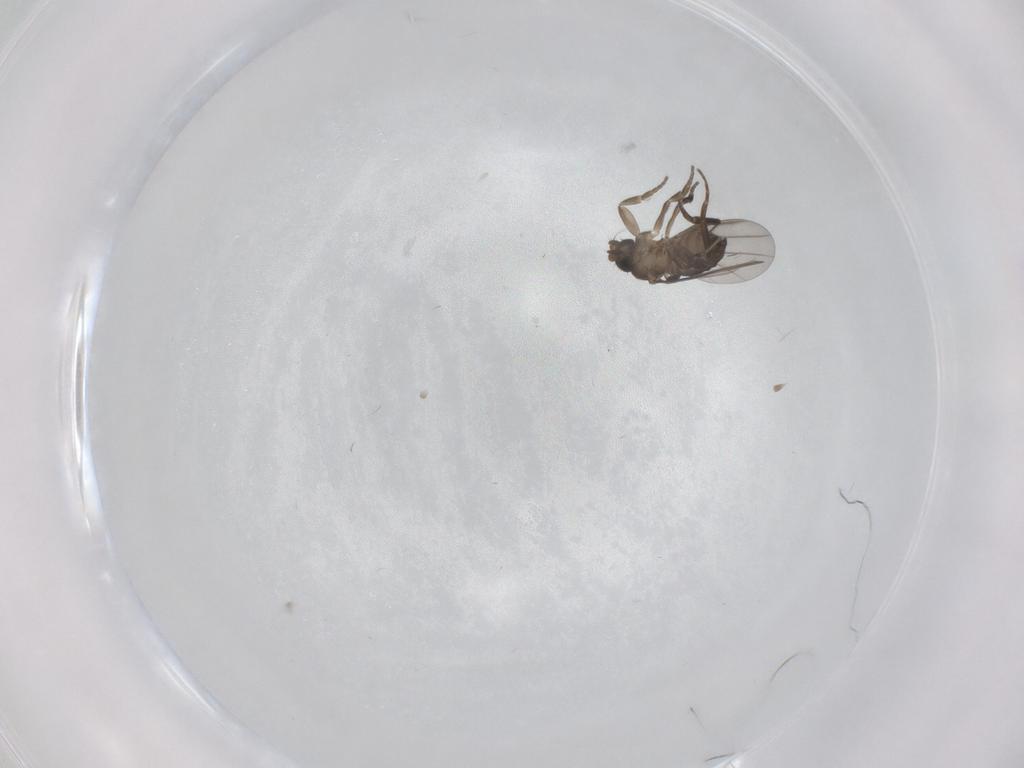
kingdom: Animalia
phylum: Arthropoda
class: Insecta
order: Diptera
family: Phoridae
